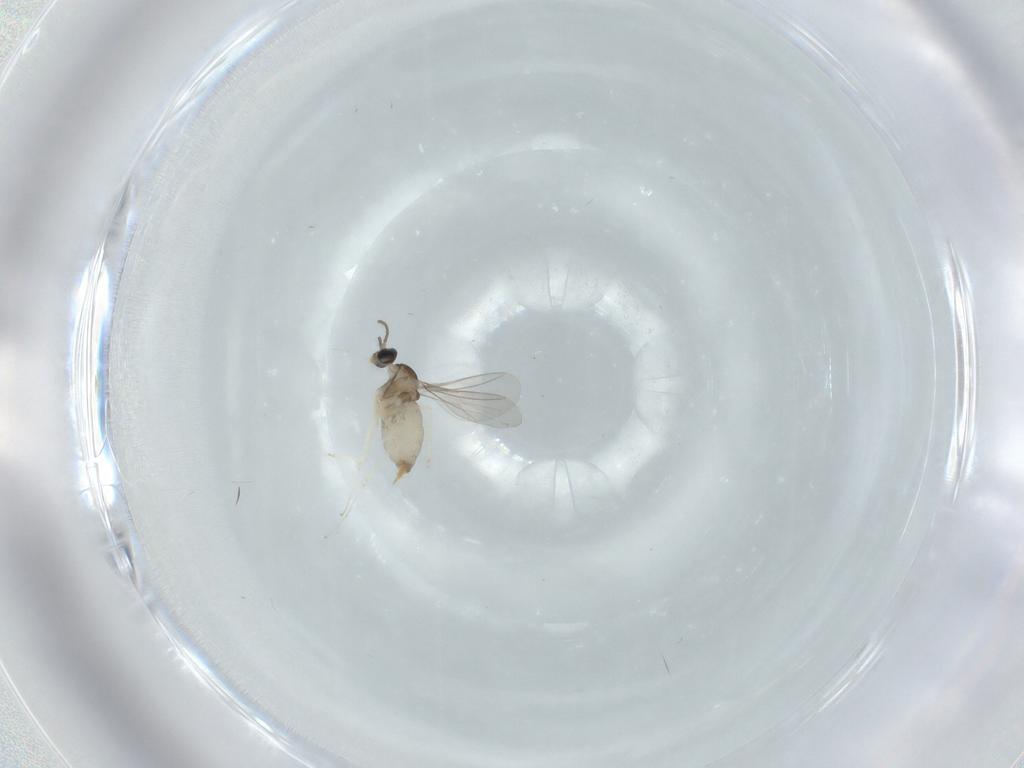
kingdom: Animalia
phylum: Arthropoda
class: Insecta
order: Diptera
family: Cecidomyiidae
